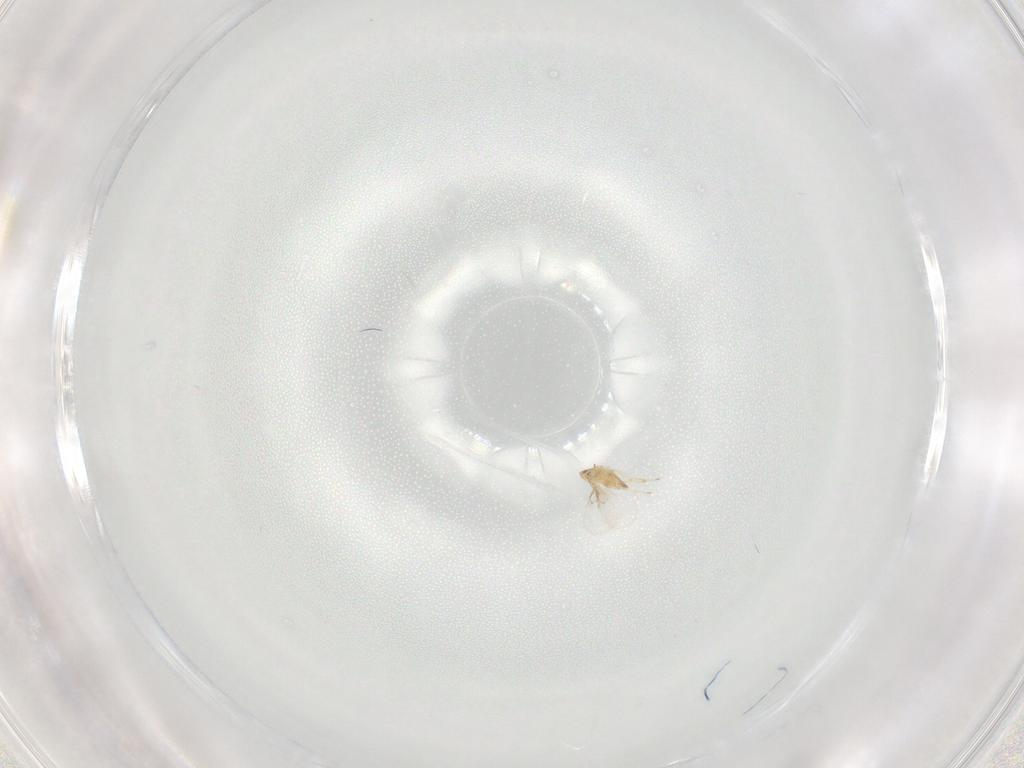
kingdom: Animalia
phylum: Arthropoda
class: Insecta
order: Hymenoptera
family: Trichogrammatidae
